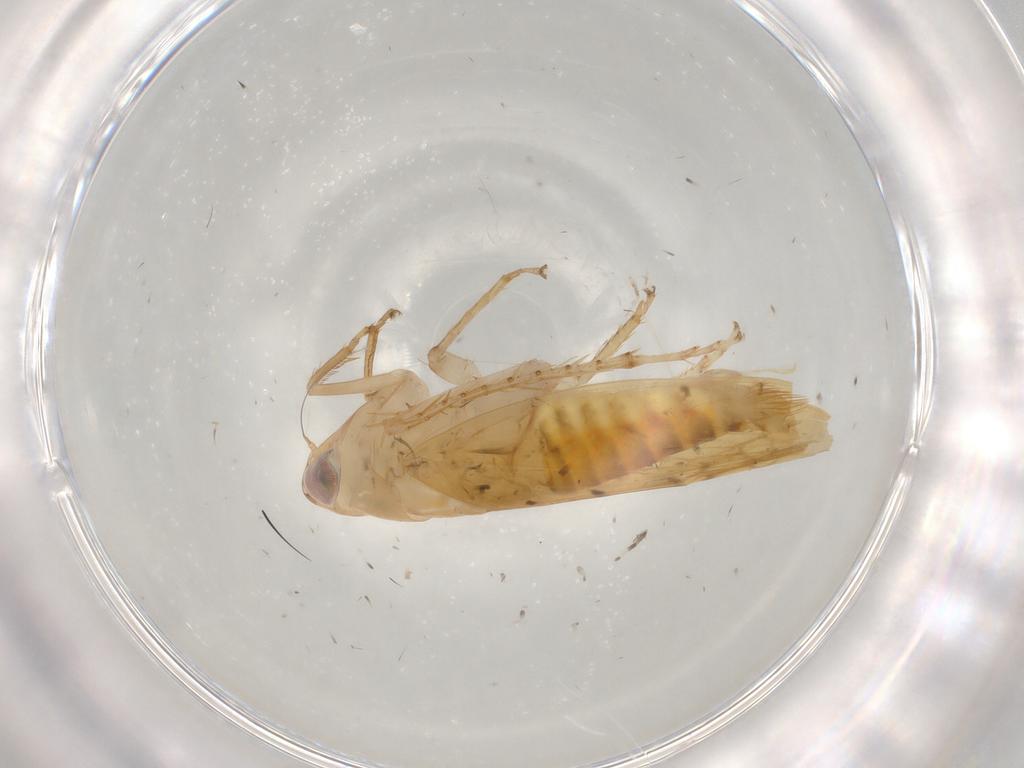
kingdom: Animalia
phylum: Arthropoda
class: Insecta
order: Hemiptera
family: Cicadellidae
